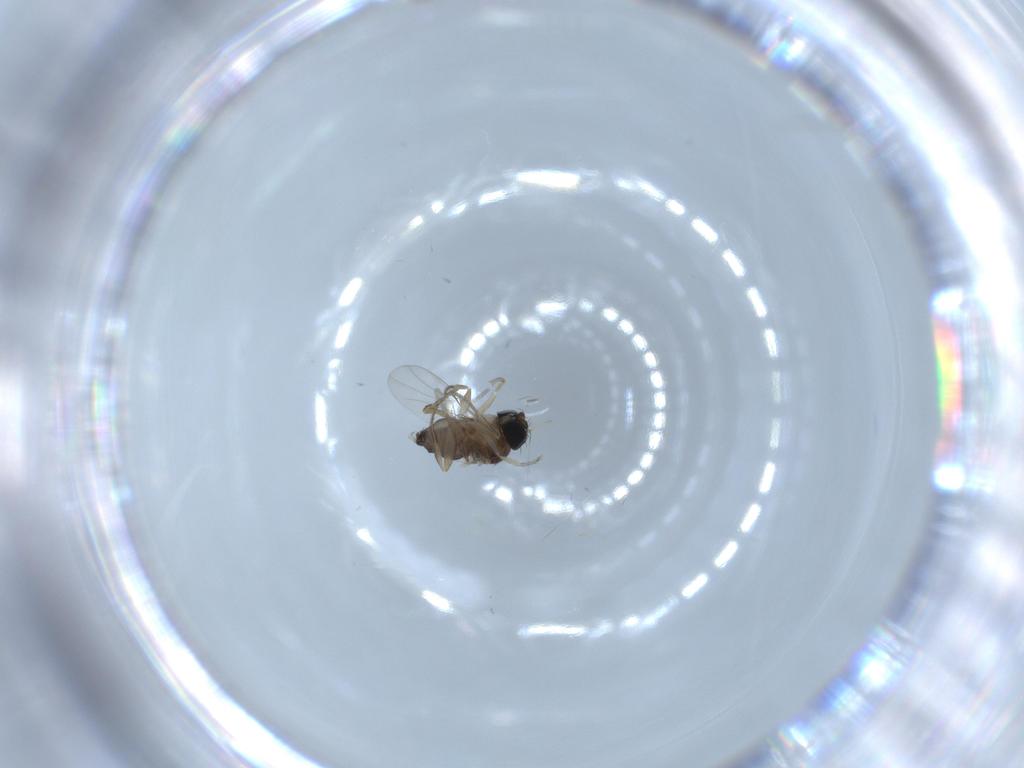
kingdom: Animalia
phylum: Arthropoda
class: Insecta
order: Diptera
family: Phoridae
